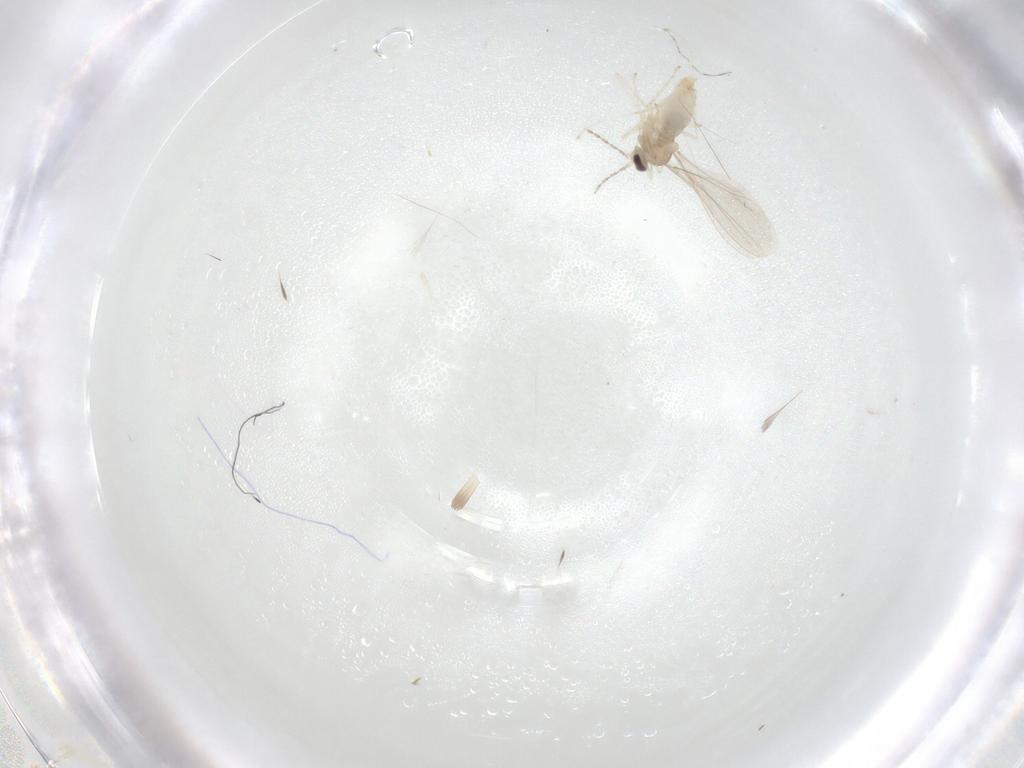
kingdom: Animalia
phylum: Arthropoda
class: Insecta
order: Diptera
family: Cecidomyiidae
